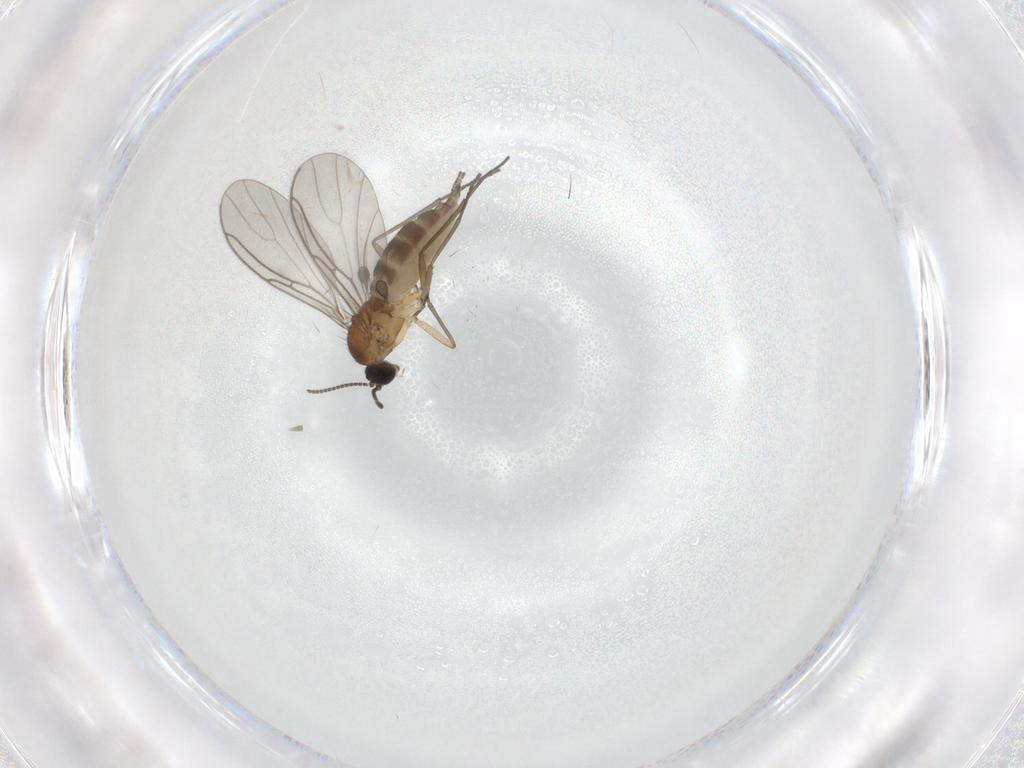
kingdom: Animalia
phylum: Arthropoda
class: Insecta
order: Diptera
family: Sciaridae
